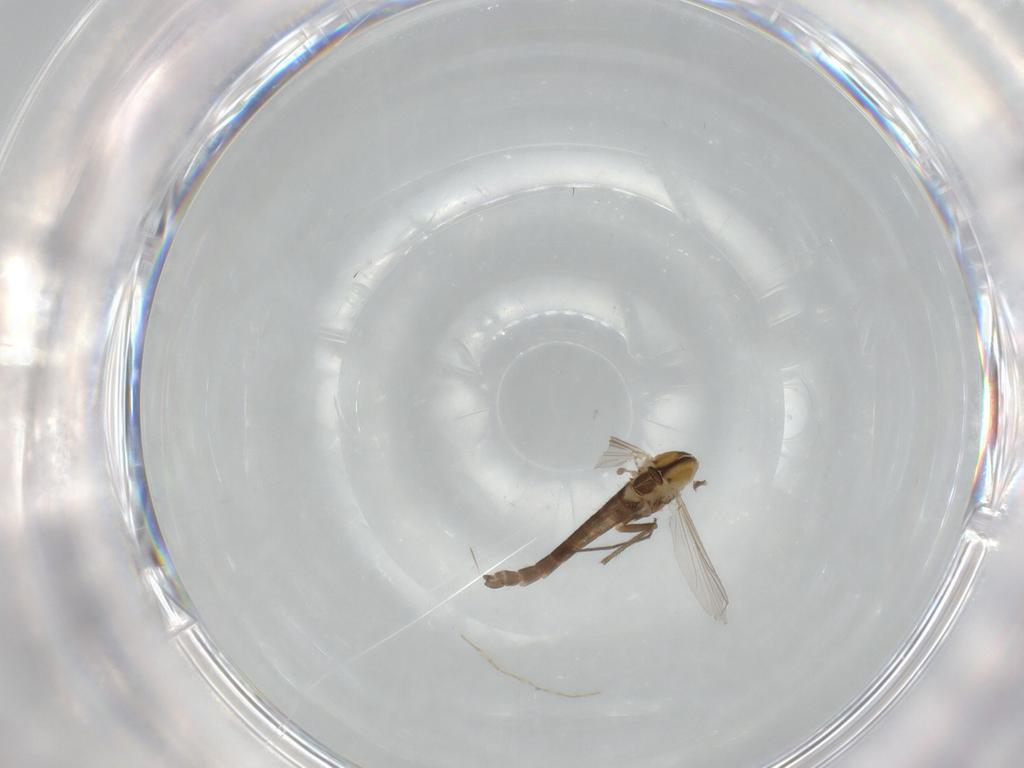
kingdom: Animalia
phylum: Arthropoda
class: Insecta
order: Diptera
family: Chironomidae
